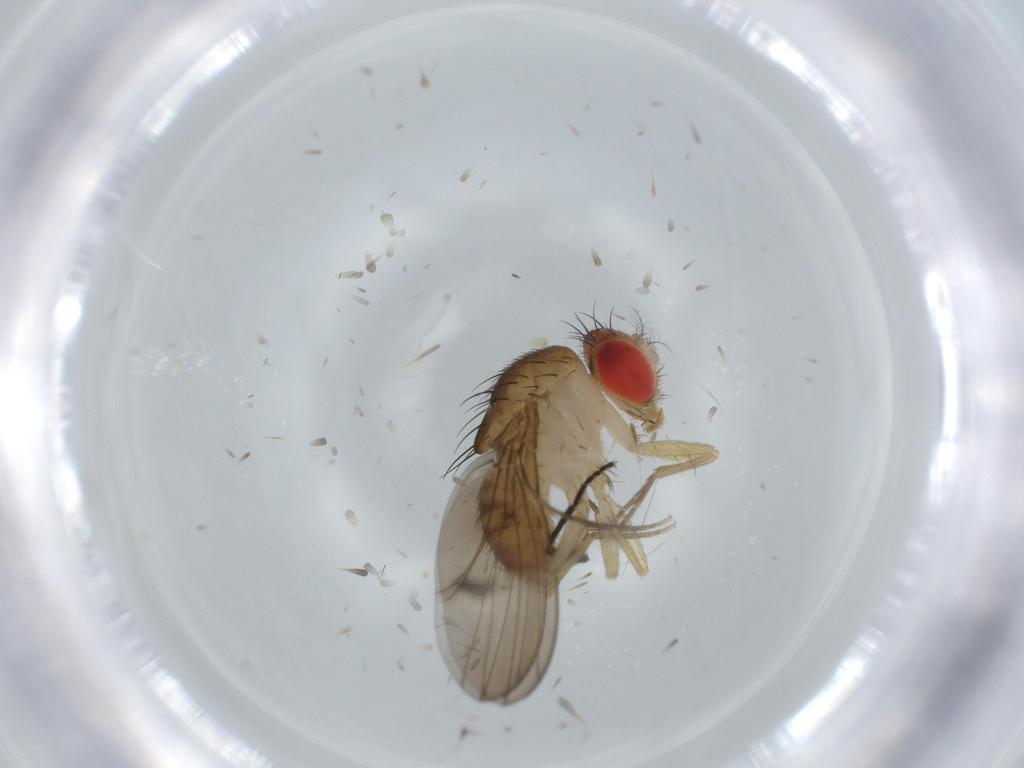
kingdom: Animalia
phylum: Arthropoda
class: Insecta
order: Diptera
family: Drosophilidae
